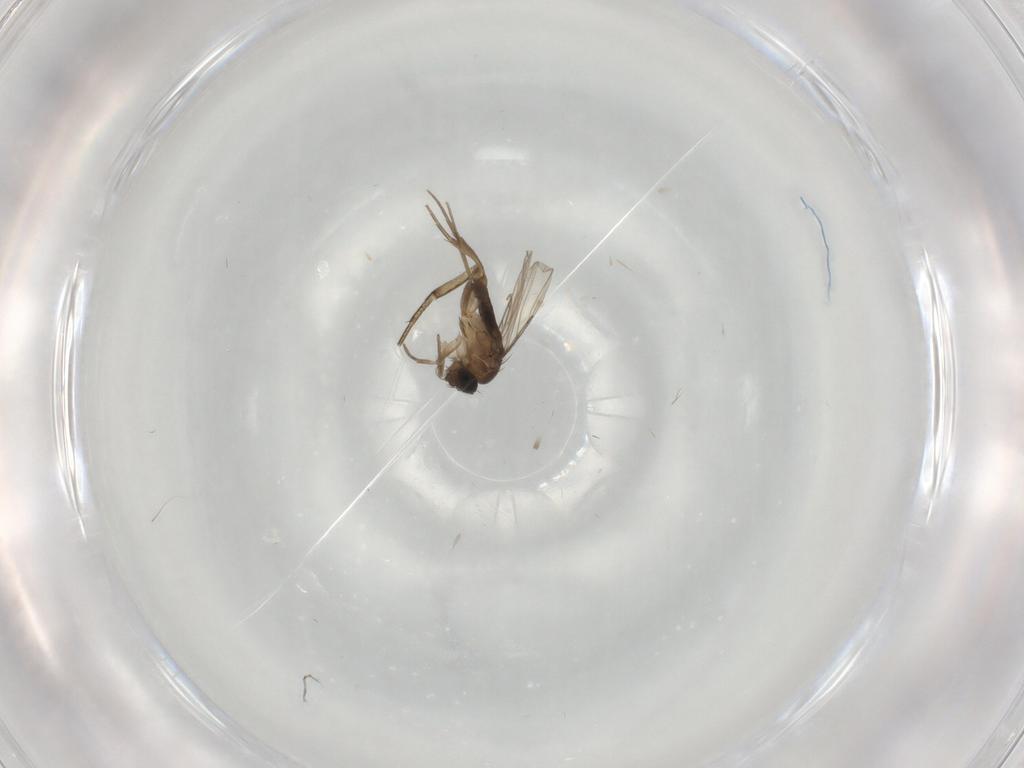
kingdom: Animalia
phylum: Arthropoda
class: Insecta
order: Diptera
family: Phoridae
